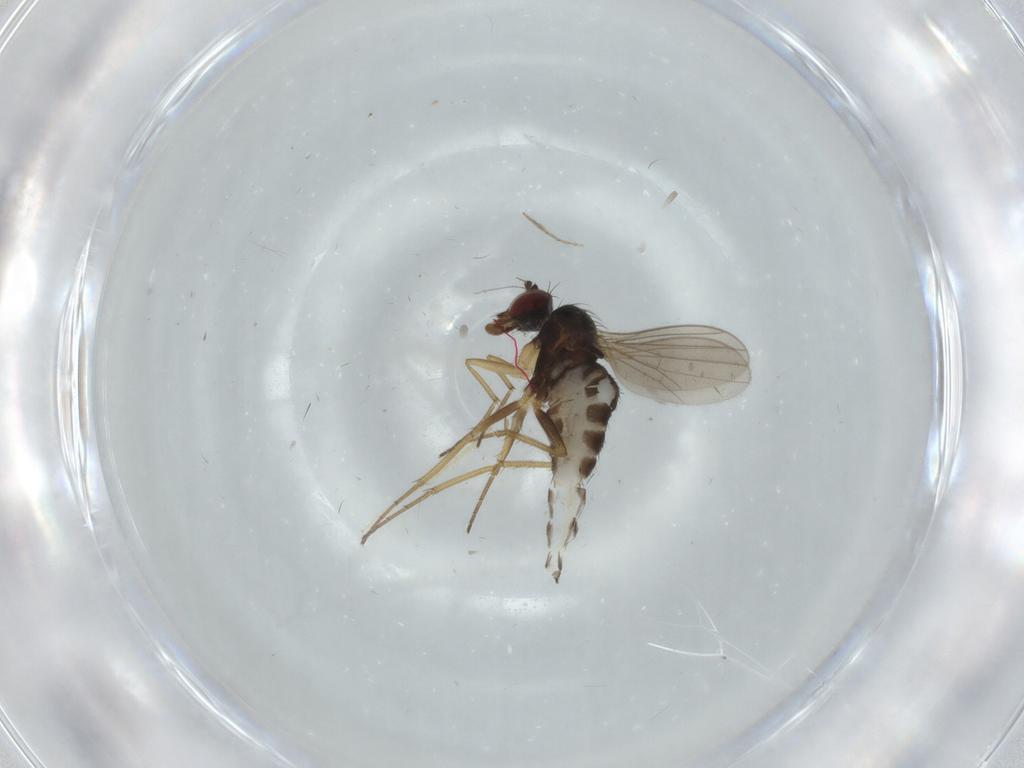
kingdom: Animalia
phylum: Arthropoda
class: Insecta
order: Diptera
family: Dolichopodidae
